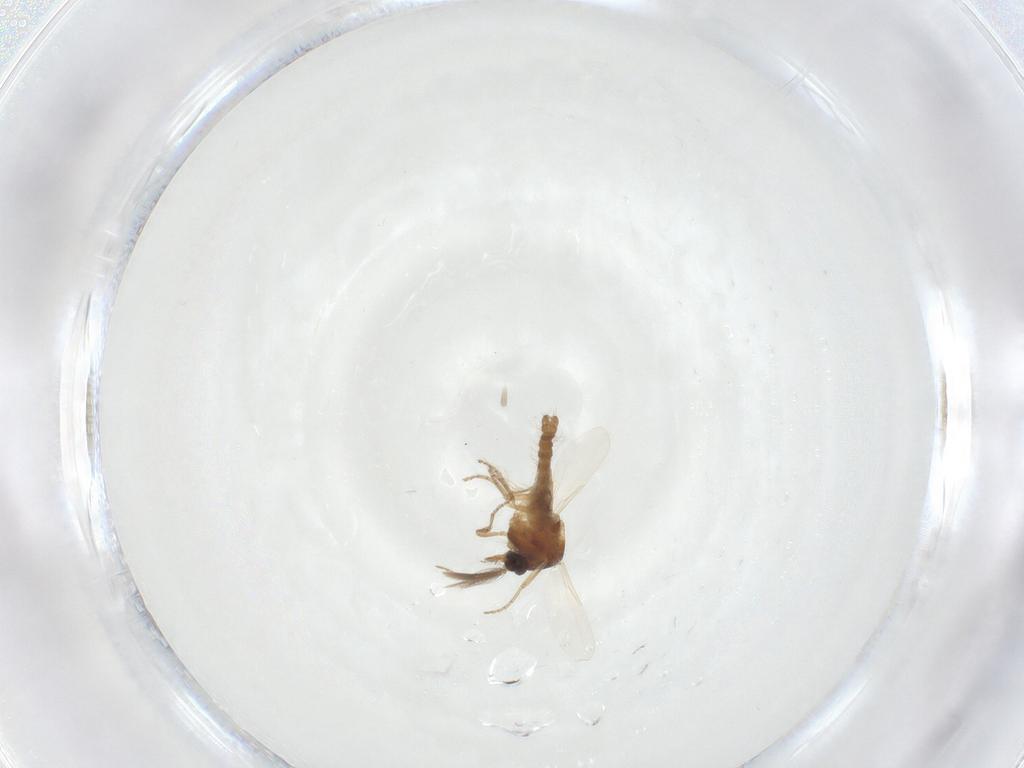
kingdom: Animalia
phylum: Arthropoda
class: Insecta
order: Diptera
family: Ceratopogonidae
